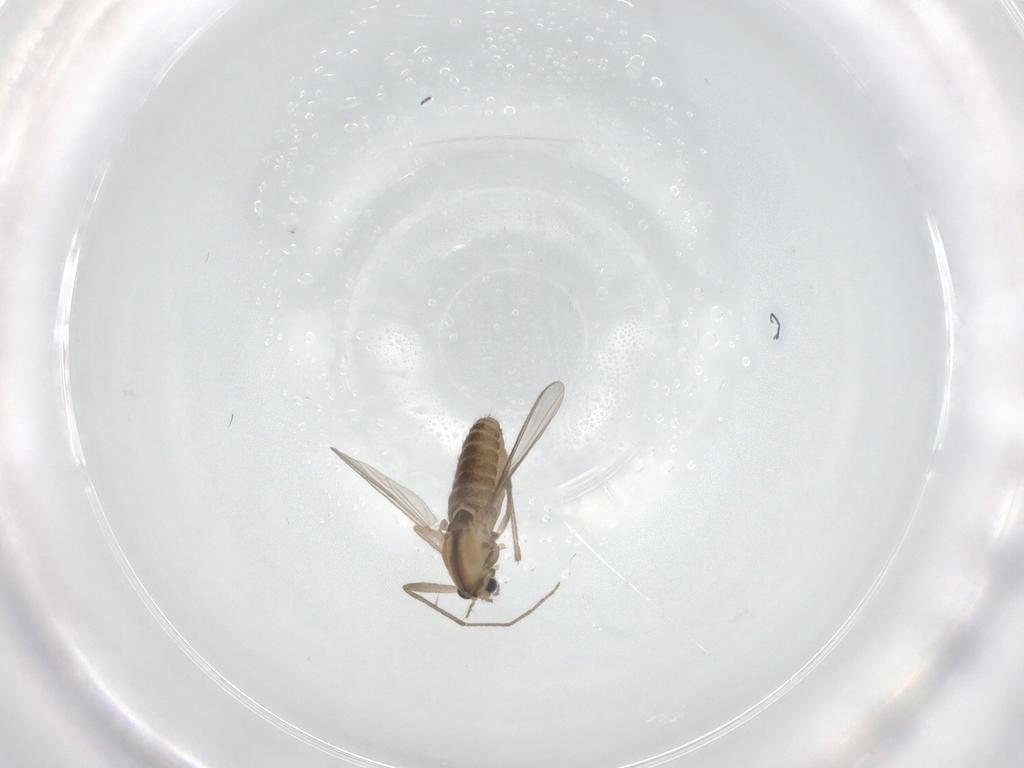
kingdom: Animalia
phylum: Arthropoda
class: Insecta
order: Diptera
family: Chironomidae
